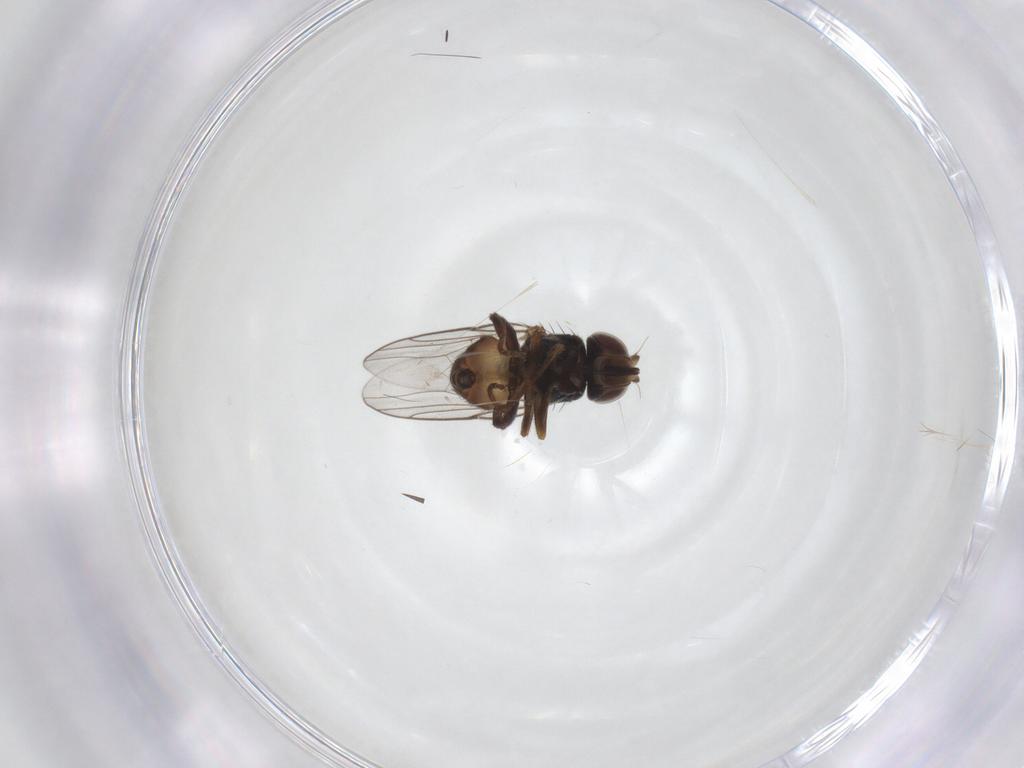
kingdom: Animalia
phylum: Arthropoda
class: Insecta
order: Diptera
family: Chloropidae
